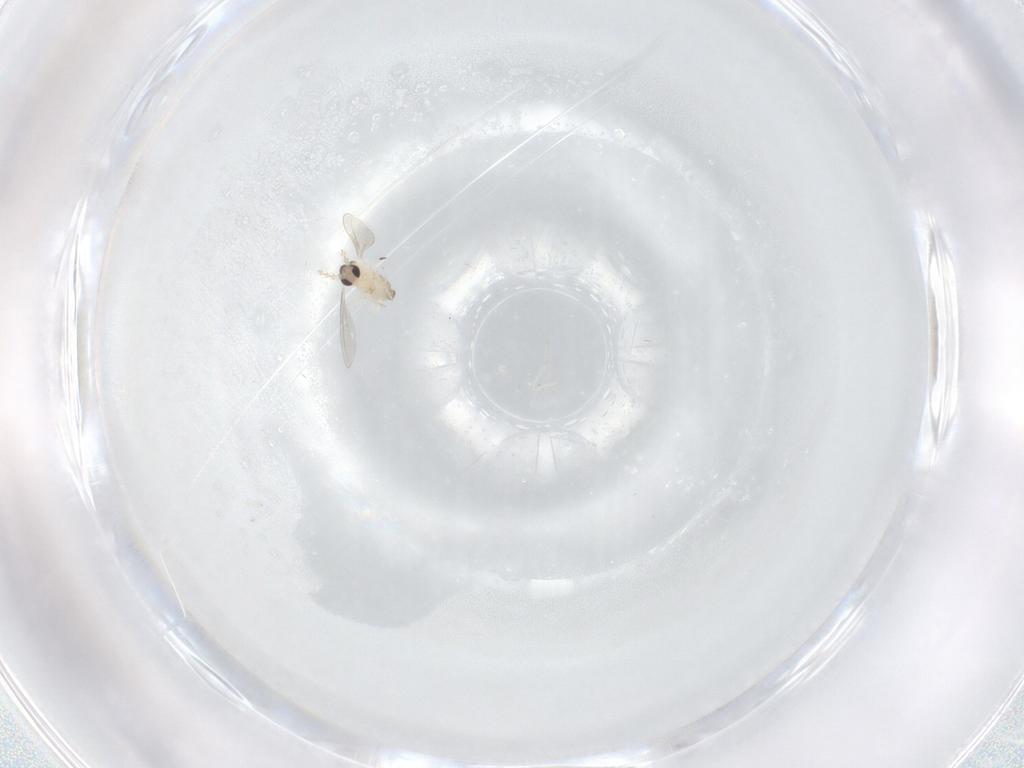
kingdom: Animalia
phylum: Arthropoda
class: Insecta
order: Diptera
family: Cecidomyiidae
